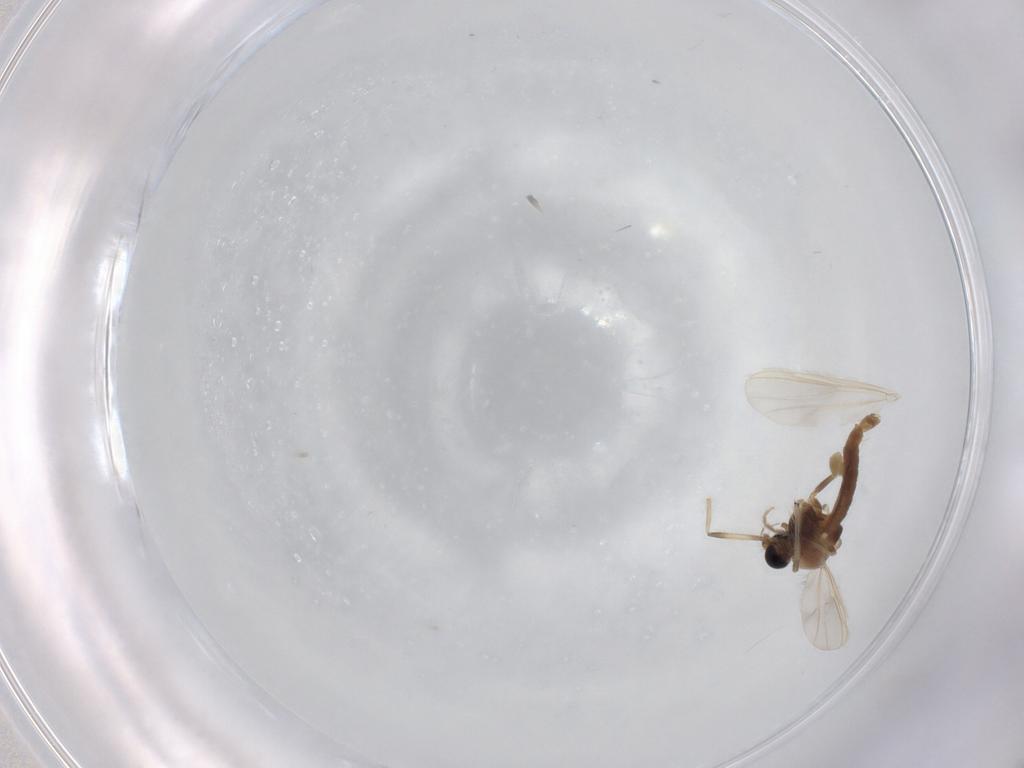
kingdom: Animalia
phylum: Arthropoda
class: Insecta
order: Diptera
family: Chironomidae
